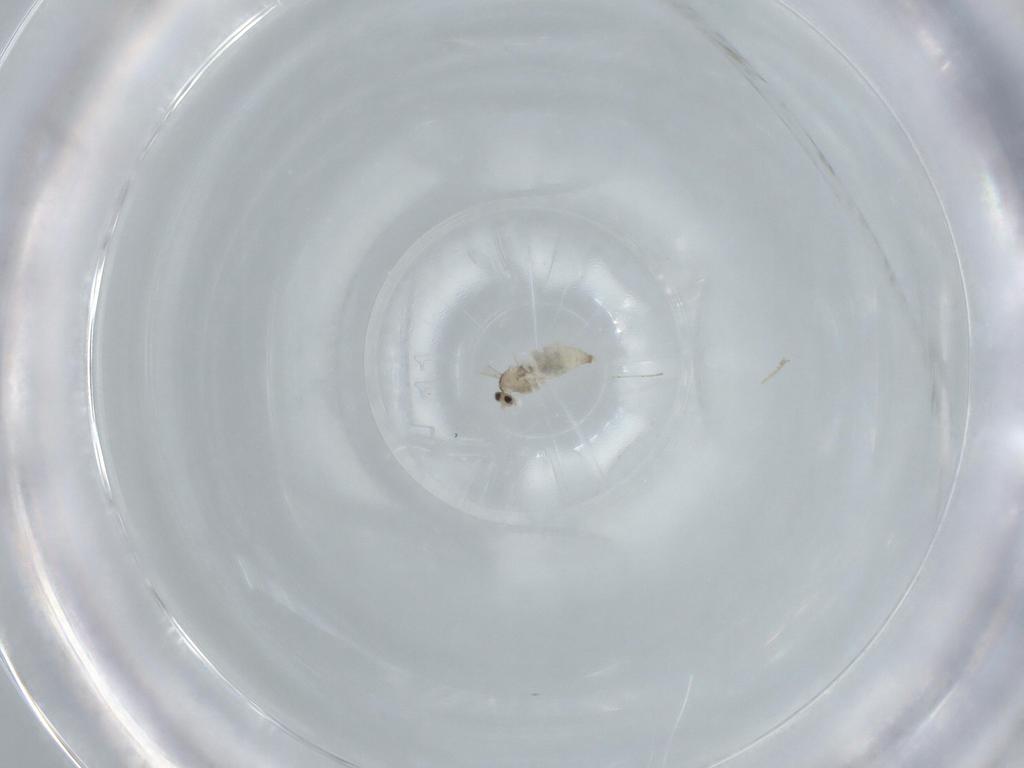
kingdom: Animalia
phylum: Arthropoda
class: Insecta
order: Diptera
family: Cecidomyiidae
